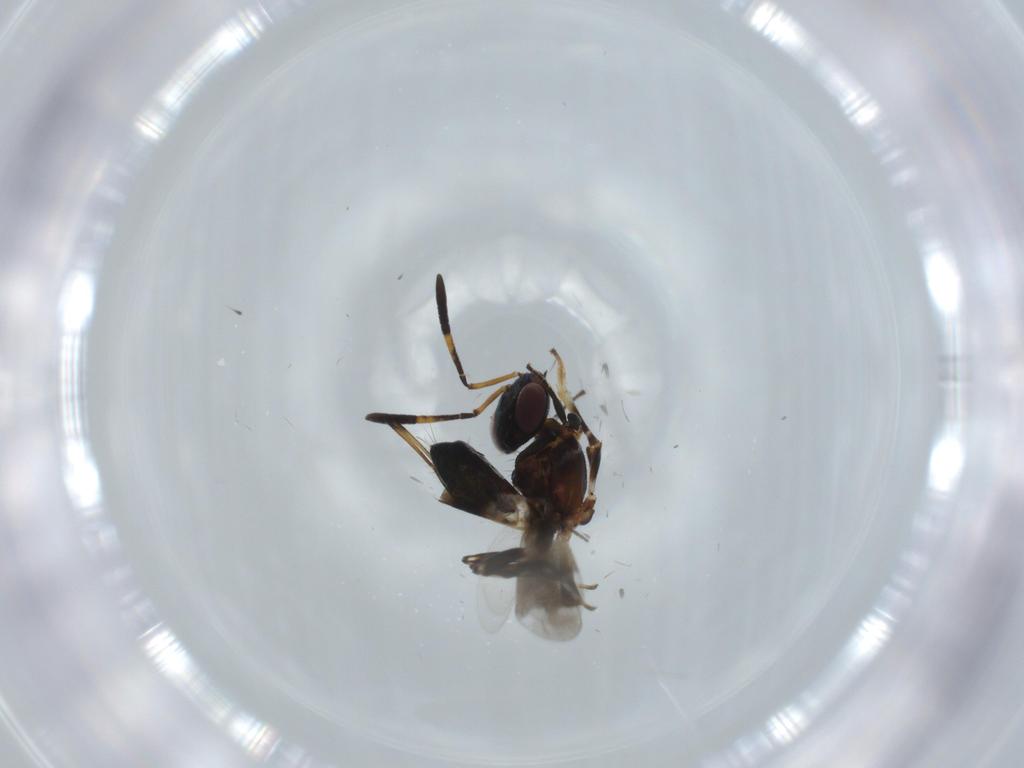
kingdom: Animalia
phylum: Arthropoda
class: Insecta
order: Hymenoptera
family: Eupelmidae
